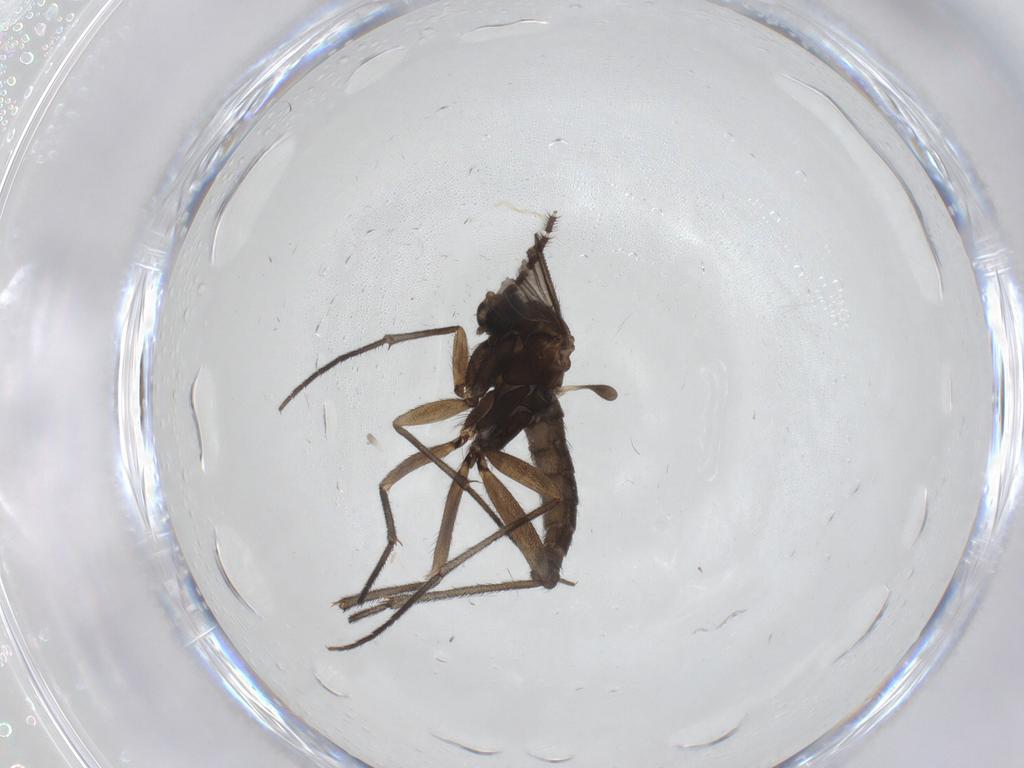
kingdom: Animalia
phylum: Arthropoda
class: Insecta
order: Diptera
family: Sciaridae
